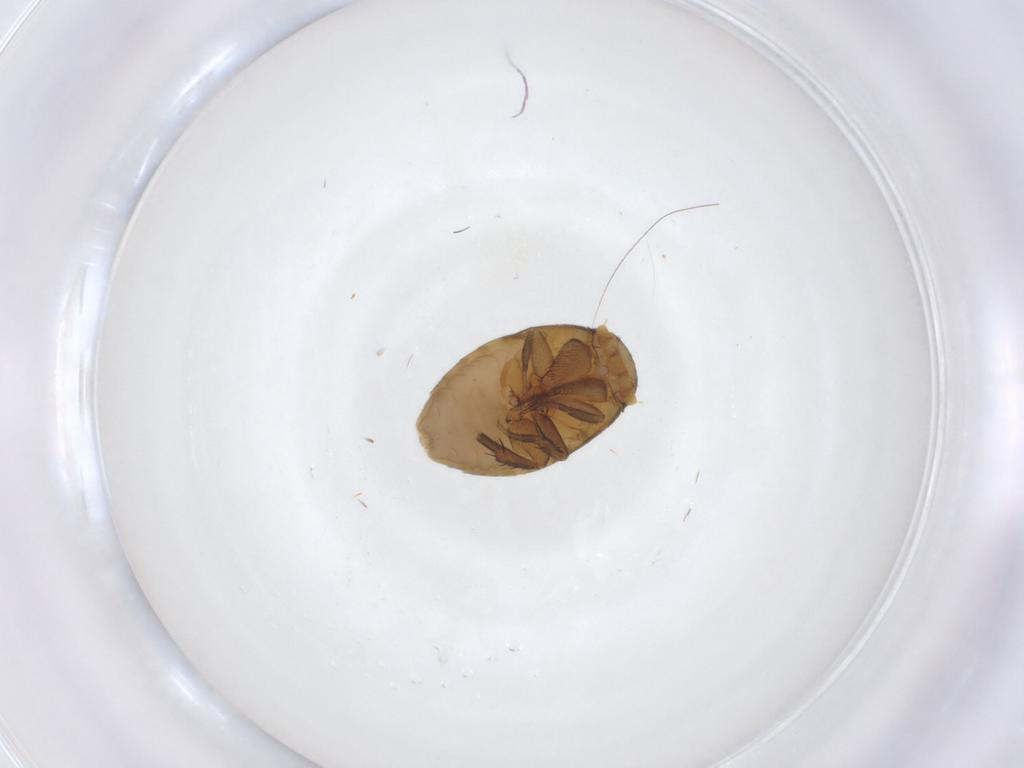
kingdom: Animalia
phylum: Arthropoda
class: Insecta
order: Diptera
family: Phoridae
